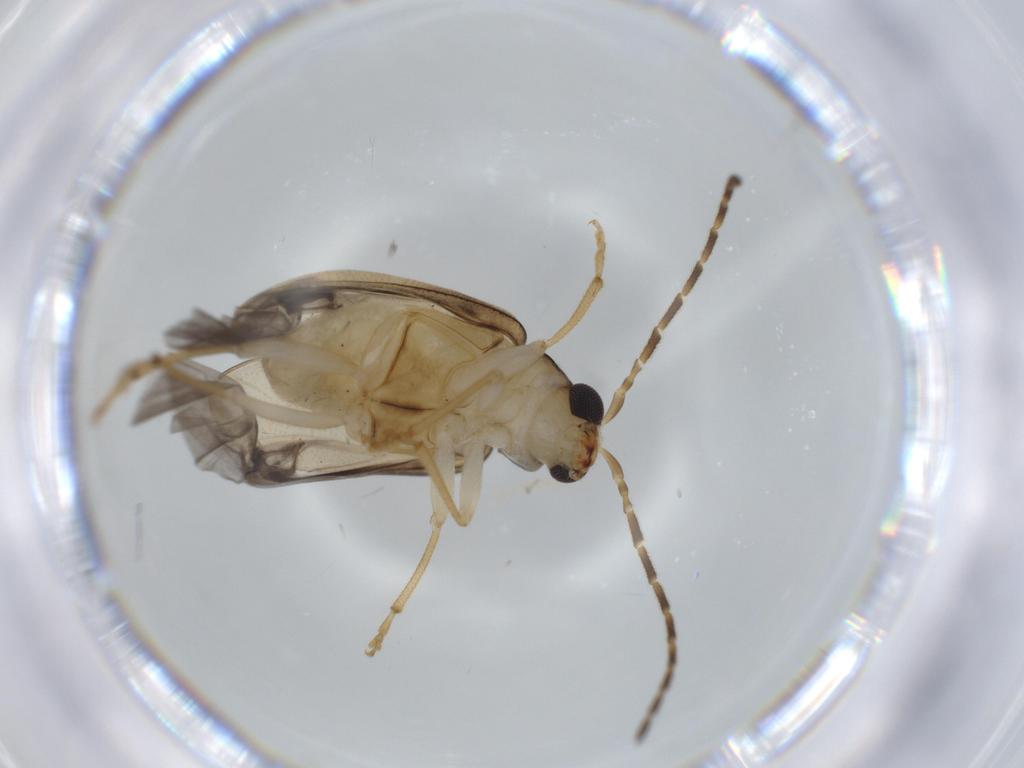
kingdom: Animalia
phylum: Arthropoda
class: Insecta
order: Coleoptera
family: Chrysomelidae
